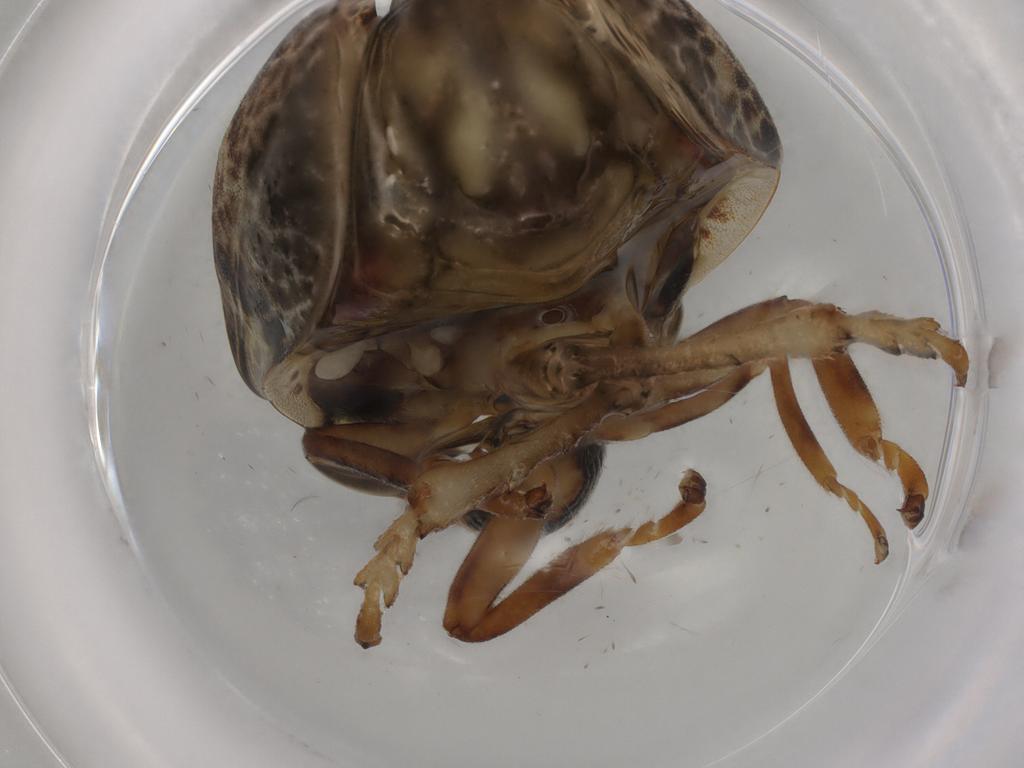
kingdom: Animalia
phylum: Arthropoda
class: Insecta
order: Hemiptera
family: Aphrophoridae
